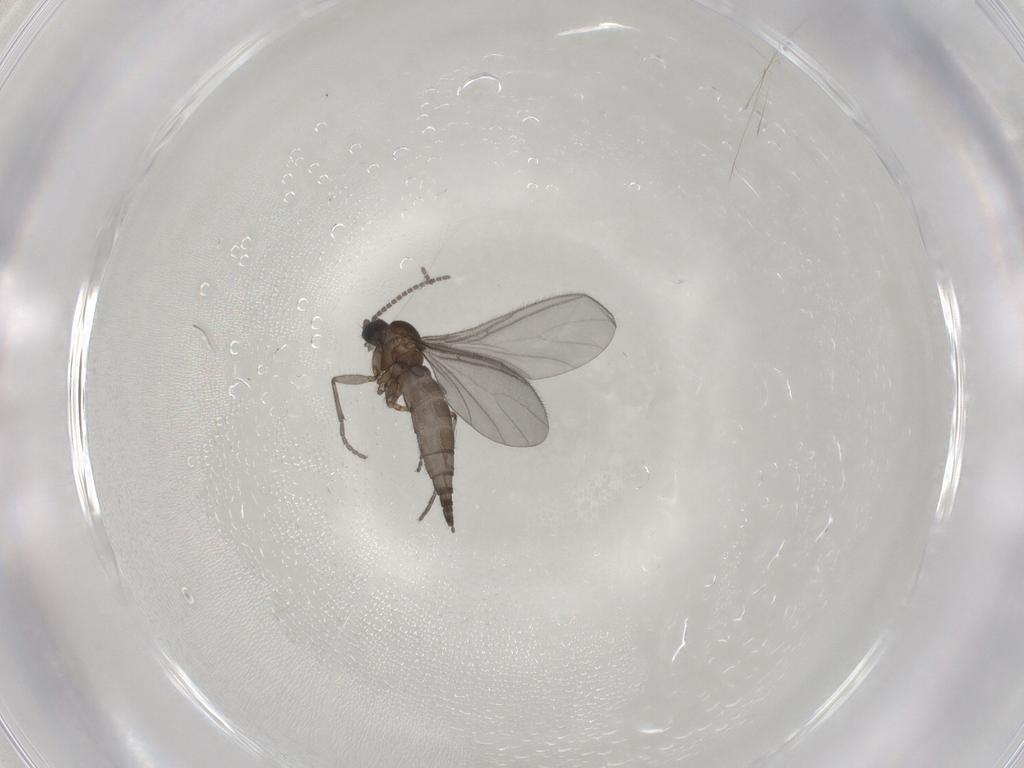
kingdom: Animalia
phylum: Arthropoda
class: Insecta
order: Diptera
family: Sciaridae
